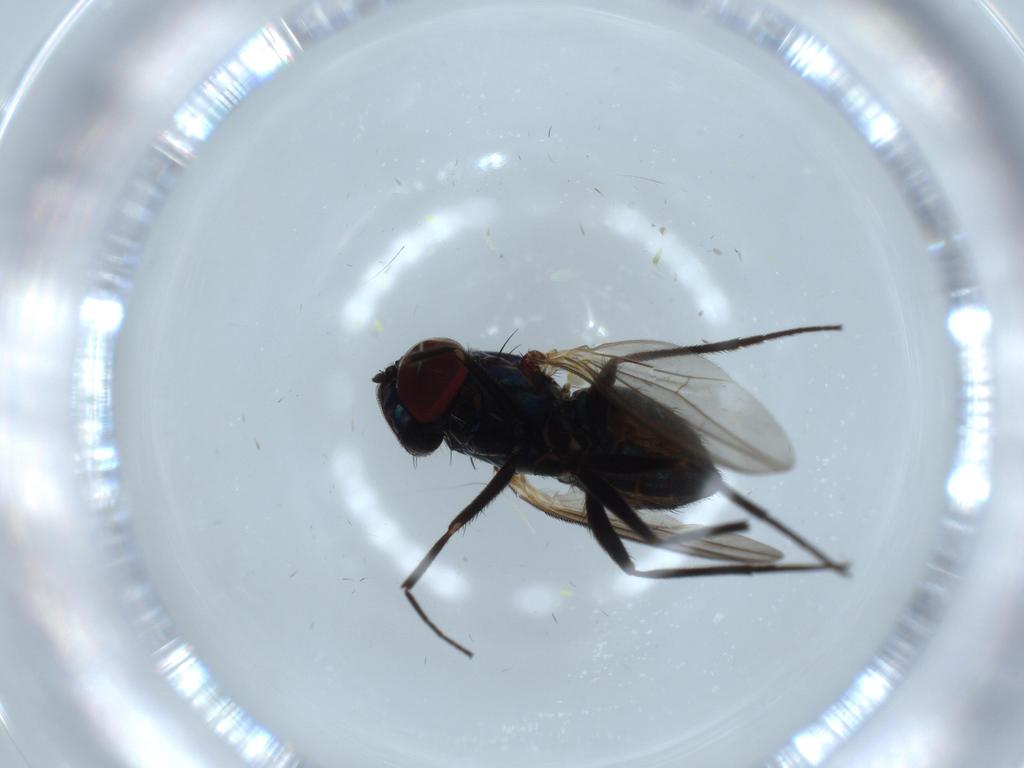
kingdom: Animalia
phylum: Arthropoda
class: Insecta
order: Diptera
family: Dolichopodidae
